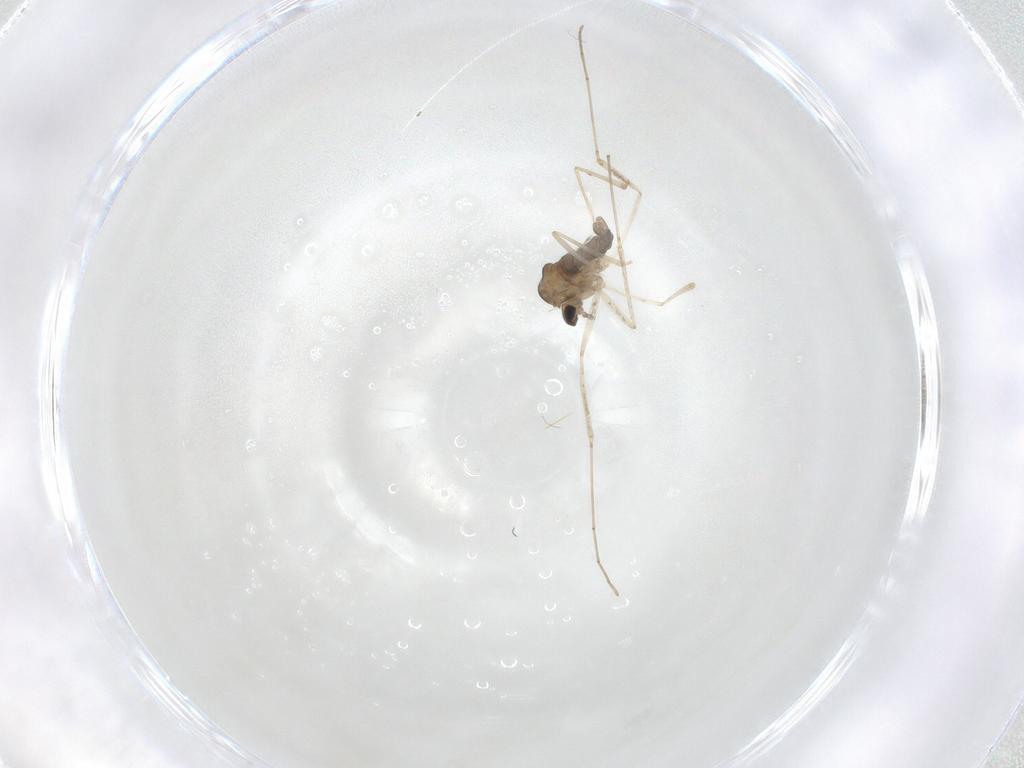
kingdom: Animalia
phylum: Arthropoda
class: Insecta
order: Diptera
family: Cecidomyiidae
